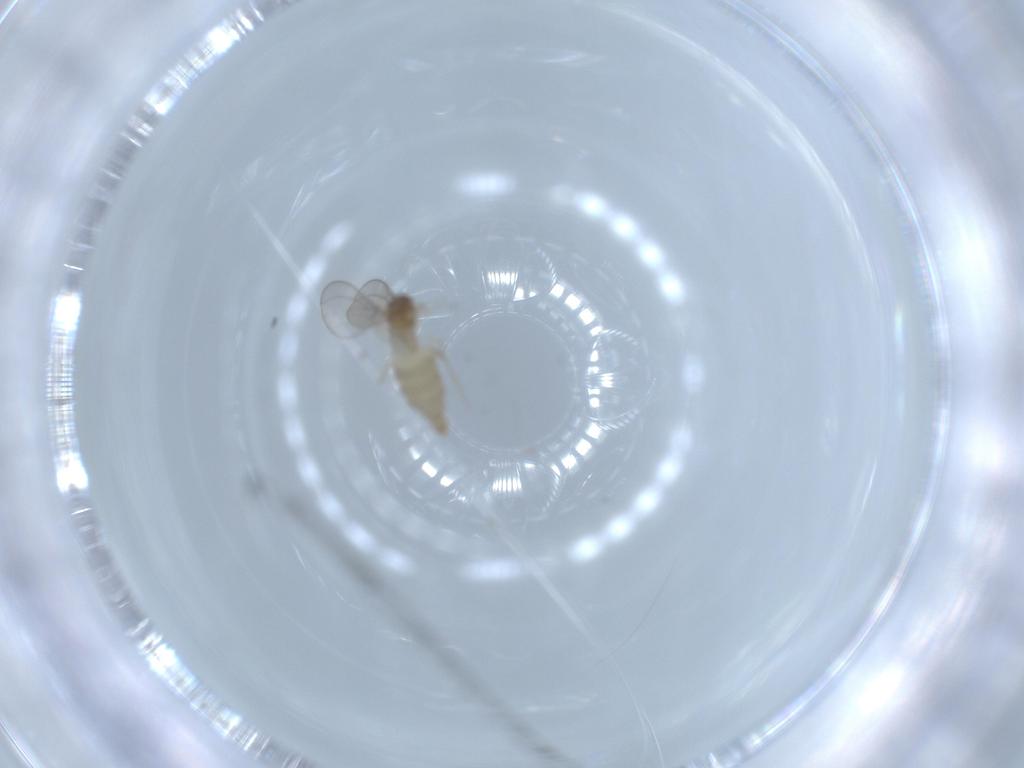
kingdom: Animalia
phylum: Arthropoda
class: Insecta
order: Diptera
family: Cecidomyiidae
